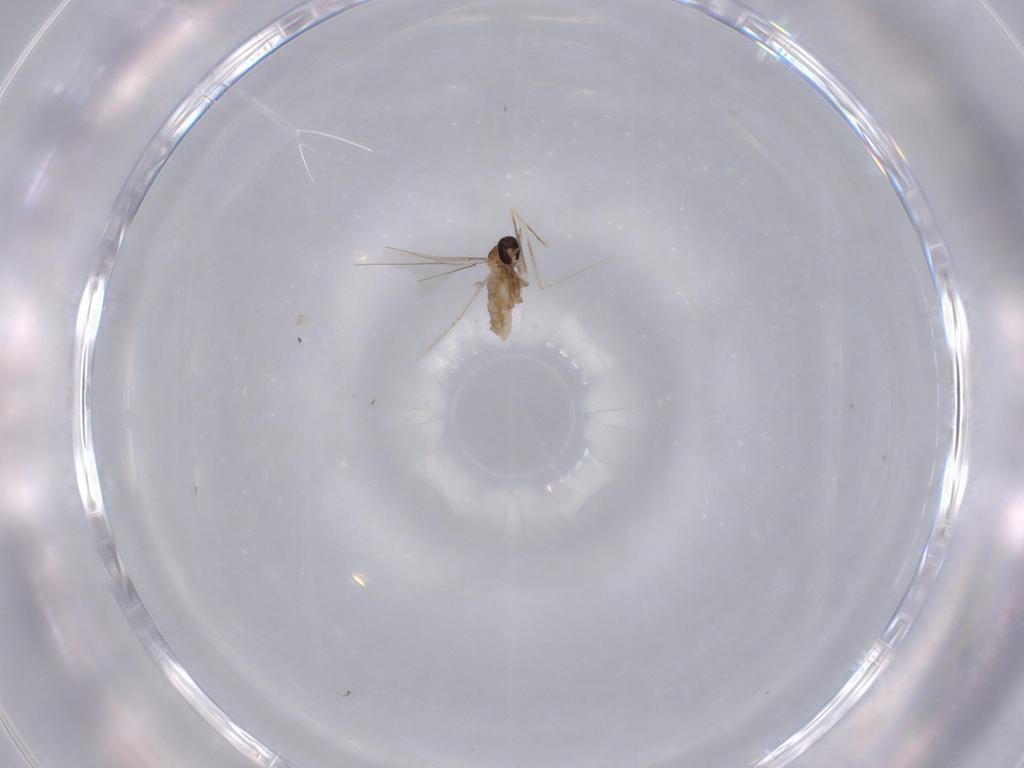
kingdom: Animalia
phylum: Arthropoda
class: Insecta
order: Diptera
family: Cecidomyiidae
